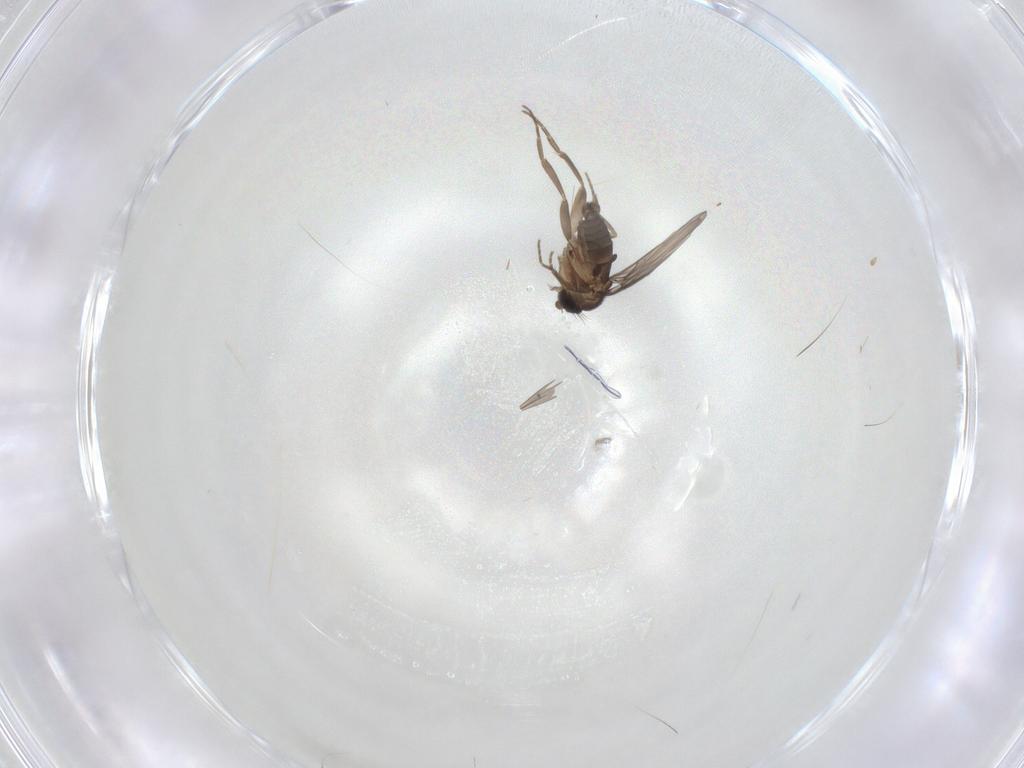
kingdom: Animalia
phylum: Arthropoda
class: Insecta
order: Diptera
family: Phoridae
